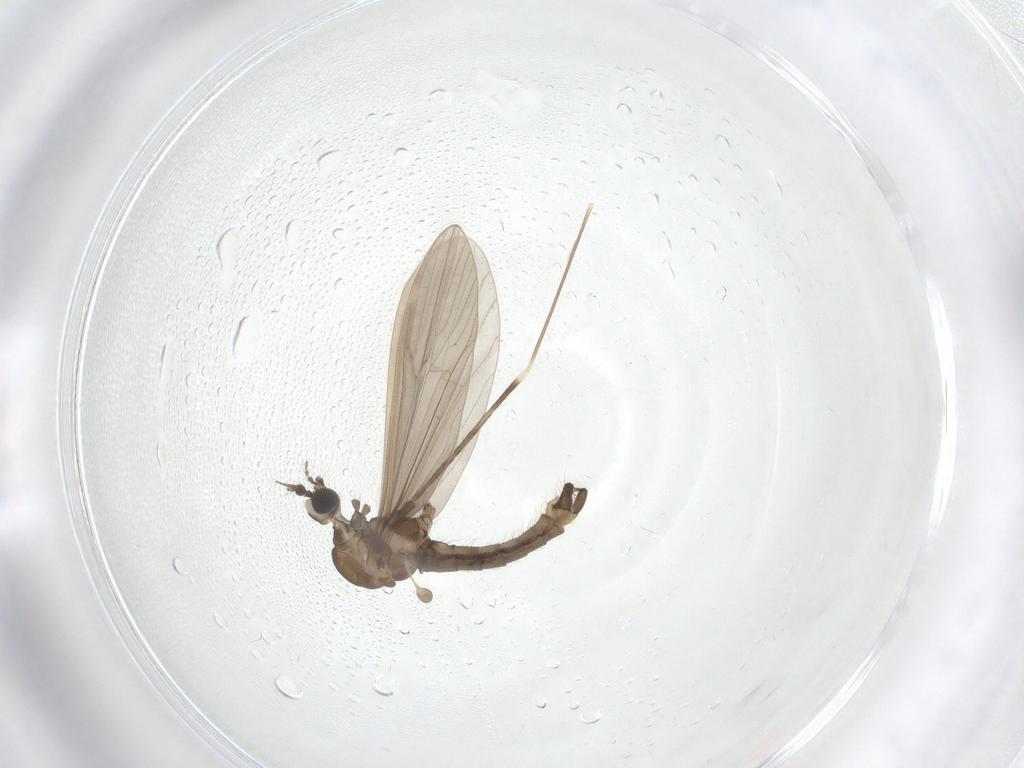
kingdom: Animalia
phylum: Arthropoda
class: Insecta
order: Diptera
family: Limoniidae
